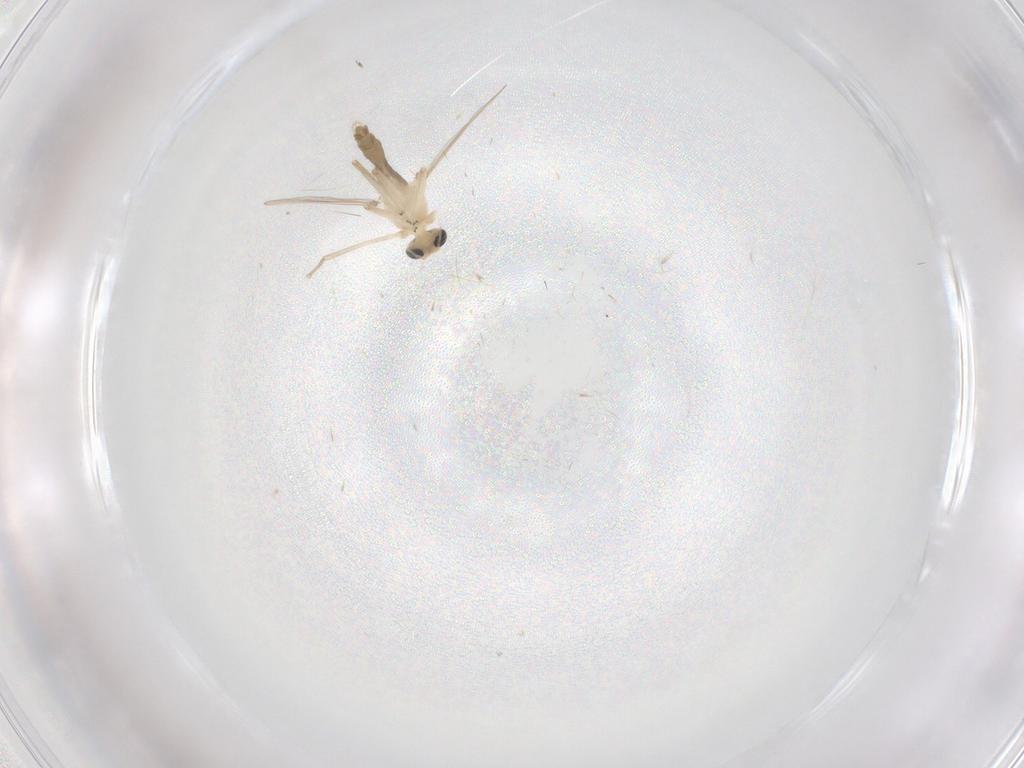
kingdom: Animalia
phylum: Arthropoda
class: Insecta
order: Diptera
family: Chironomidae
